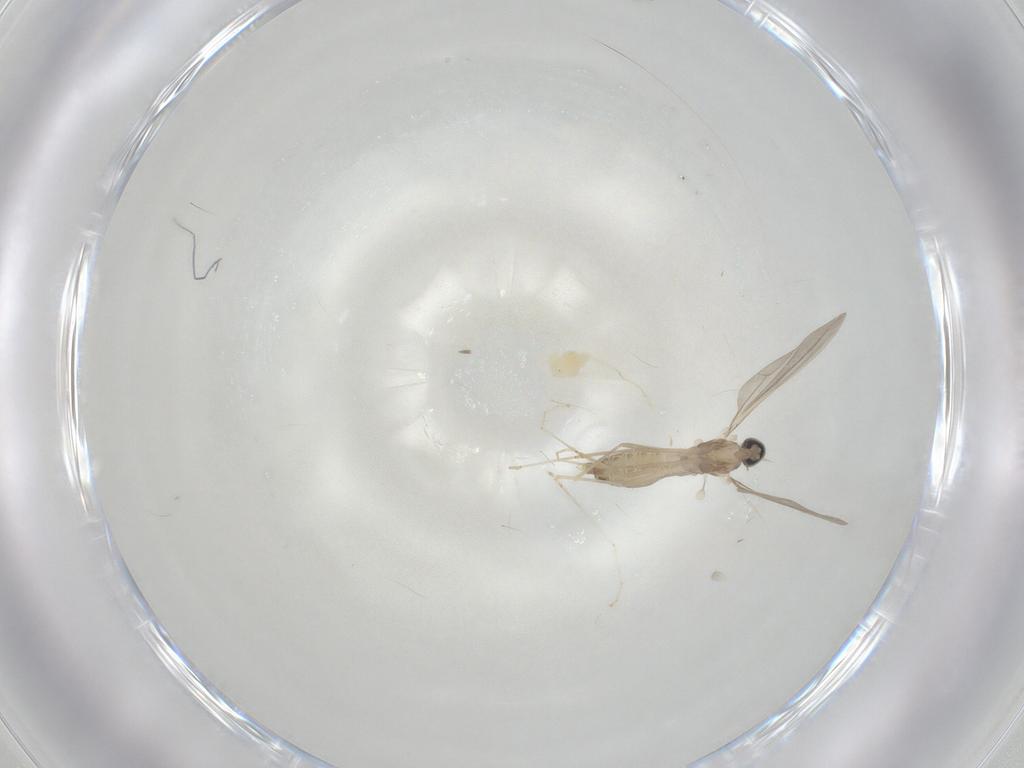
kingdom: Animalia
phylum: Arthropoda
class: Insecta
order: Diptera
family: Cecidomyiidae
